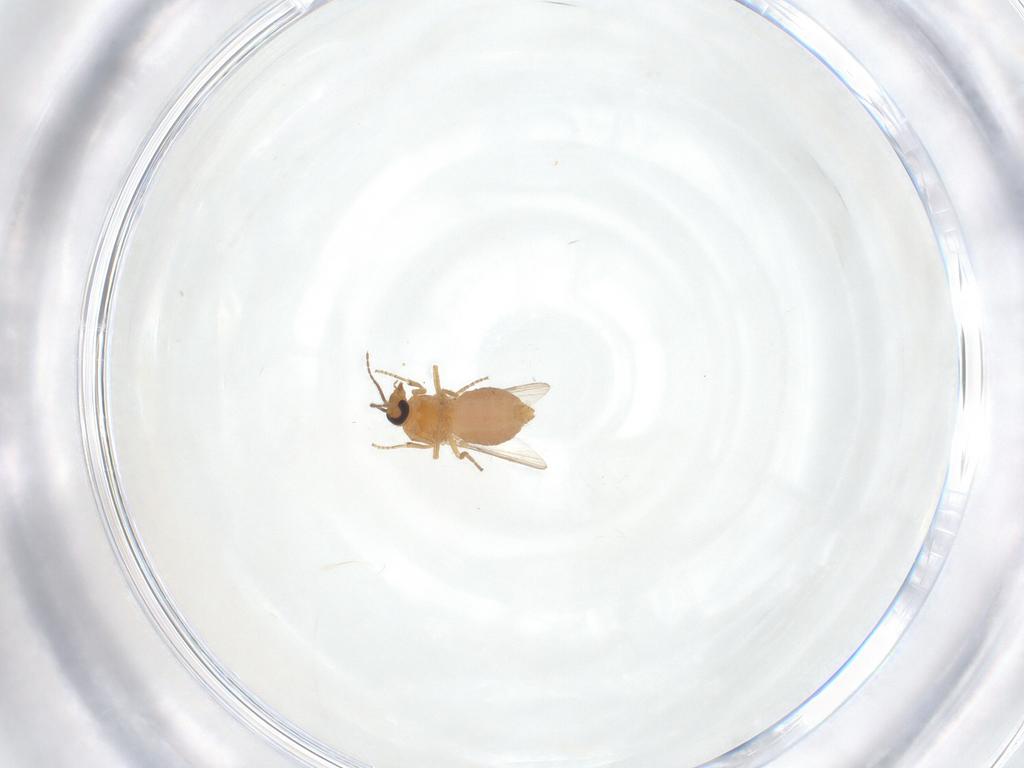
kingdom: Animalia
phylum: Arthropoda
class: Insecta
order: Diptera
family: Ceratopogonidae
